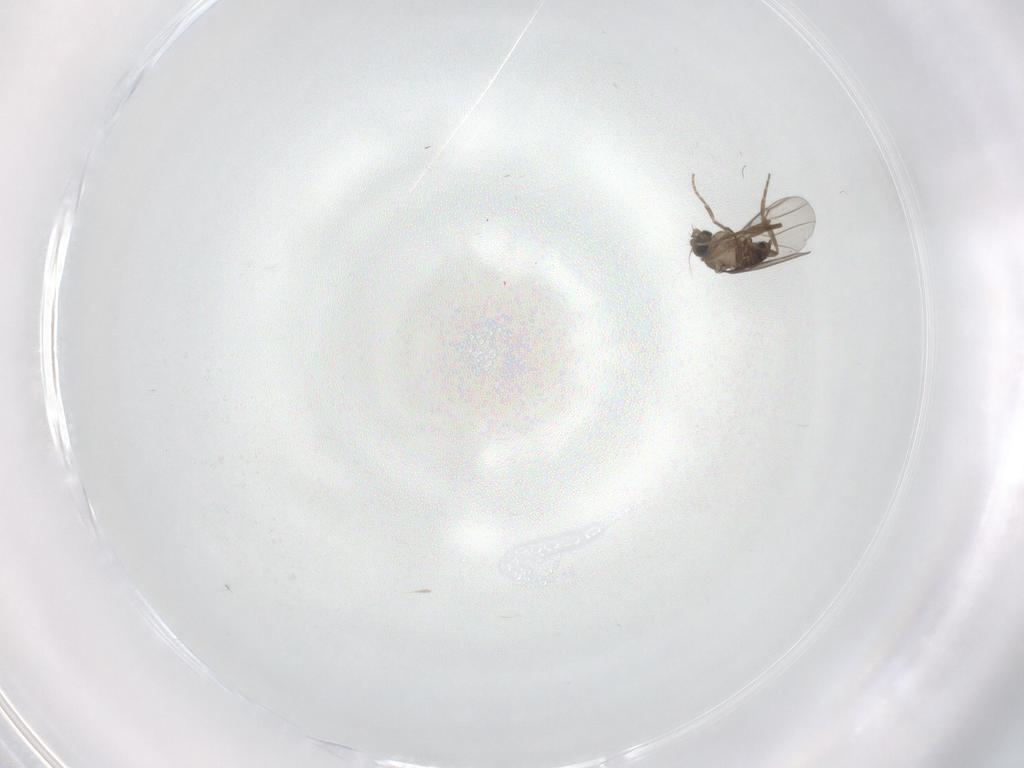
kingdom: Animalia
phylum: Arthropoda
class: Insecta
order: Diptera
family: Phoridae
